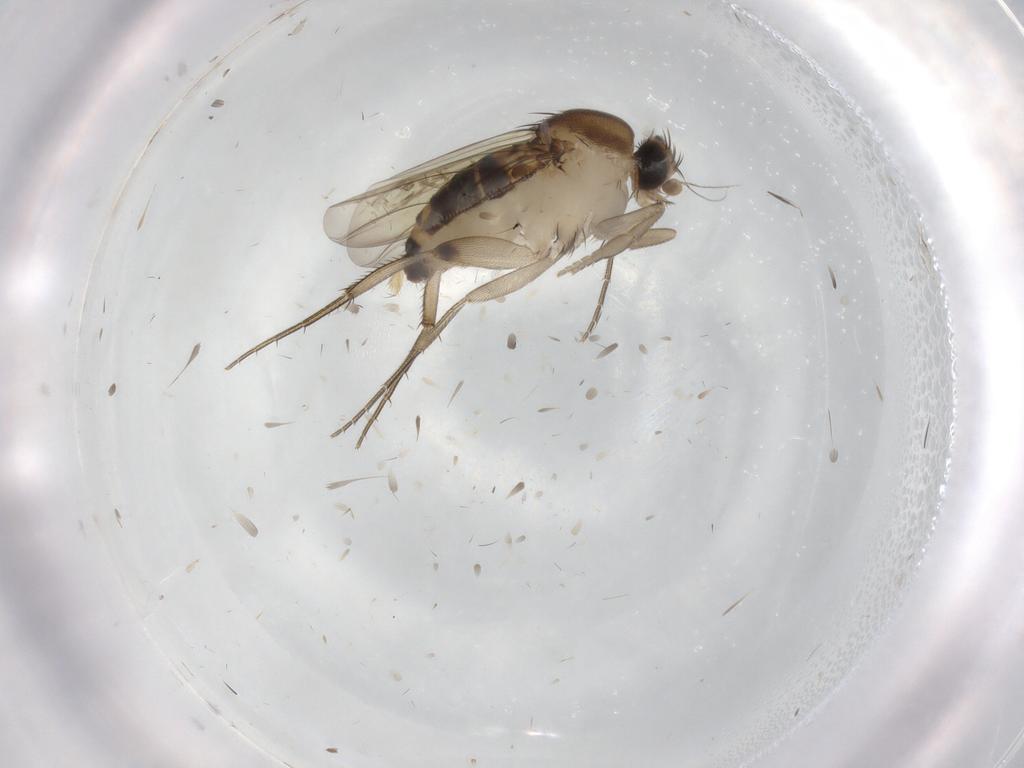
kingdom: Animalia
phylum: Arthropoda
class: Insecta
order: Diptera
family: Phoridae
